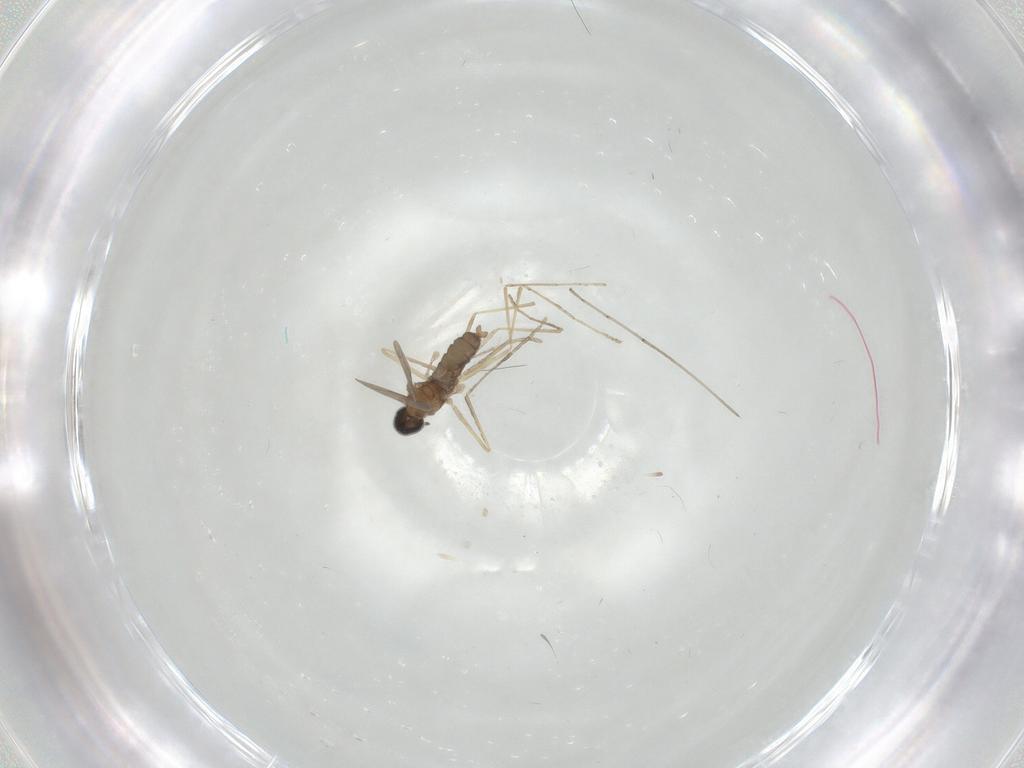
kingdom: Animalia
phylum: Arthropoda
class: Insecta
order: Diptera
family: Cecidomyiidae
